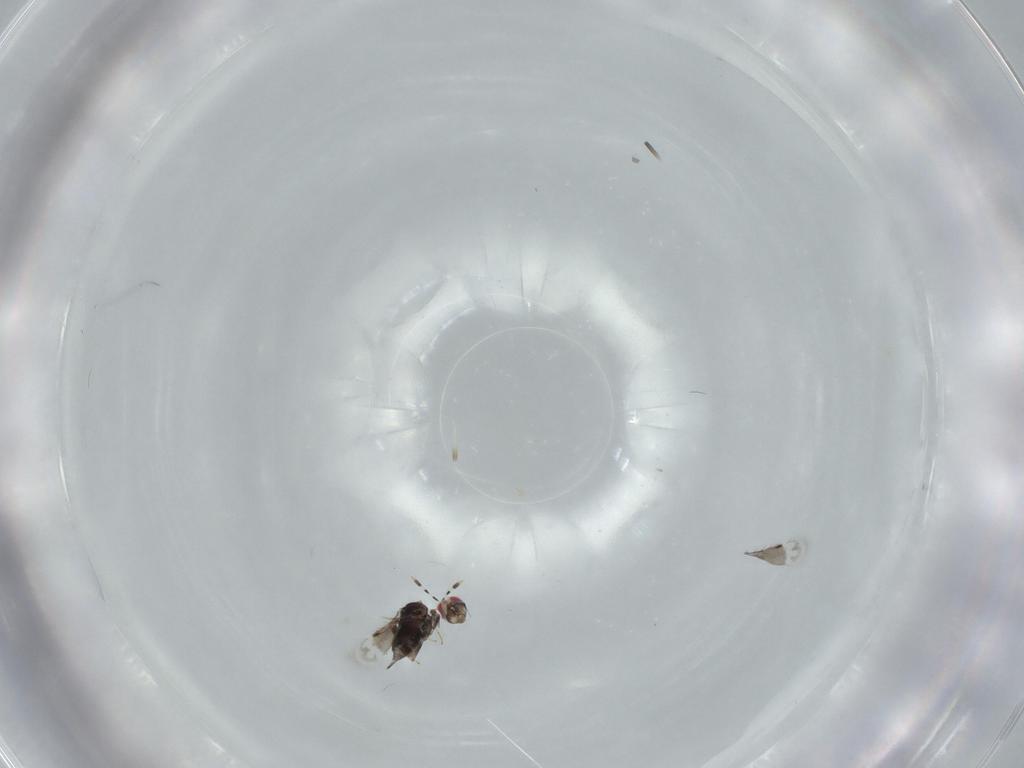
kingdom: Animalia
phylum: Arthropoda
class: Insecta
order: Hymenoptera
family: Azotidae
